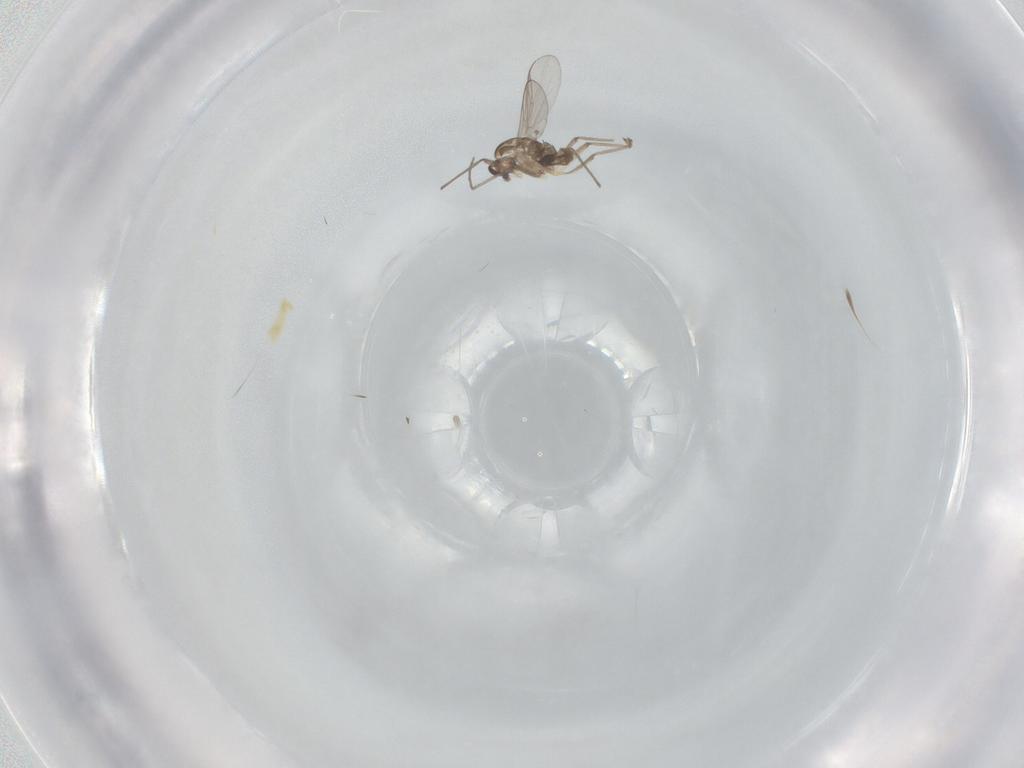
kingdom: Animalia
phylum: Arthropoda
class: Insecta
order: Diptera
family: Chironomidae
